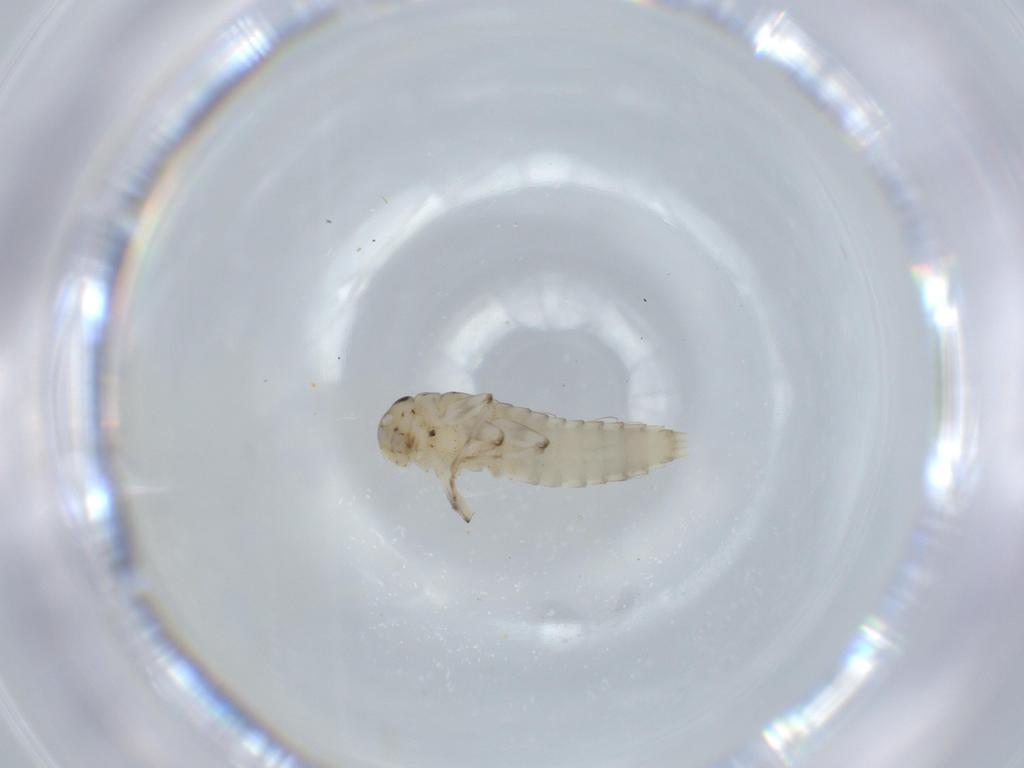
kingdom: Animalia
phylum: Arthropoda
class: Insecta
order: Ephemeroptera
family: Baetidae
